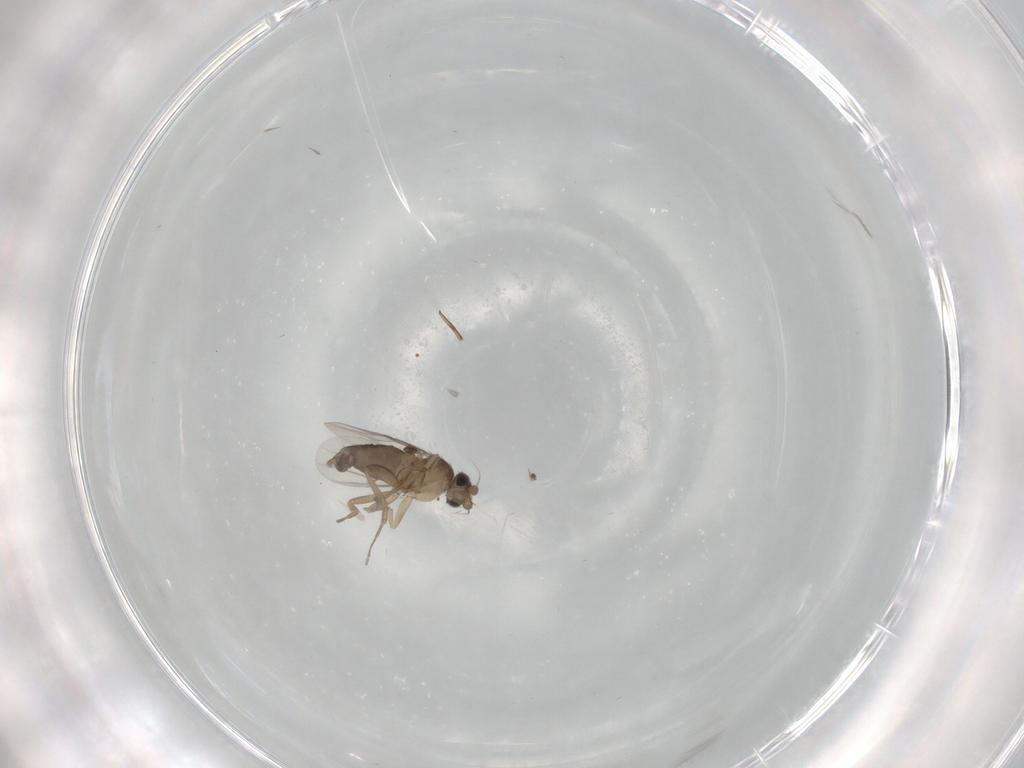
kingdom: Animalia
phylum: Arthropoda
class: Insecta
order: Diptera
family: Phoridae
